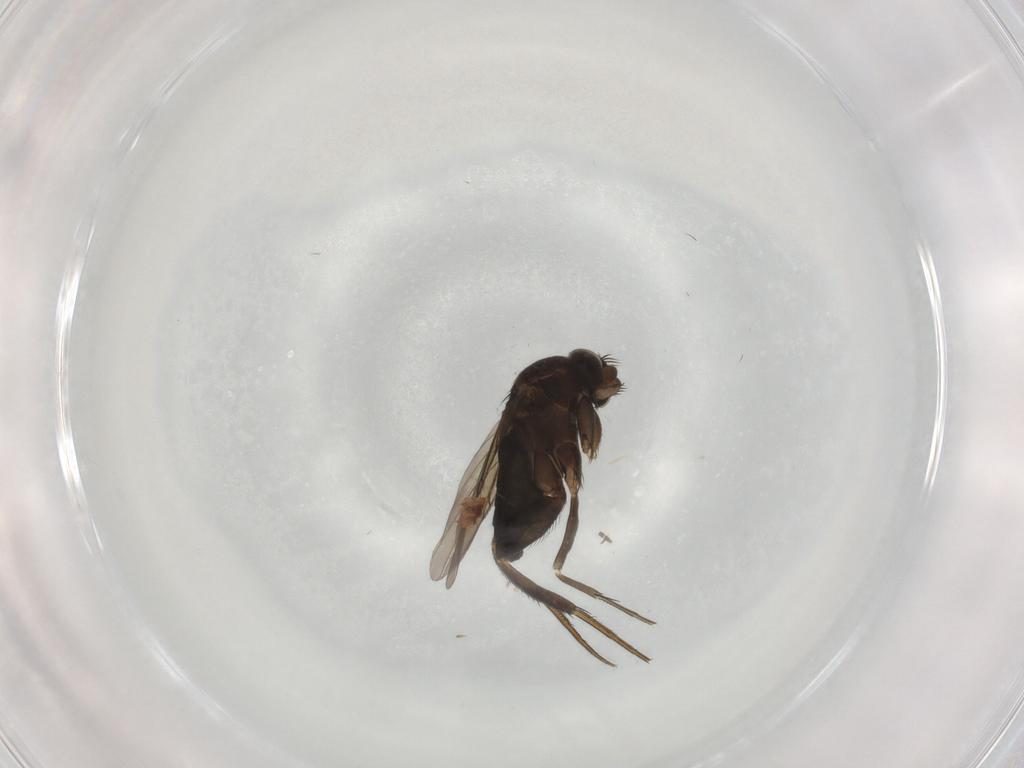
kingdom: Animalia
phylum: Arthropoda
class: Insecta
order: Diptera
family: Phoridae
